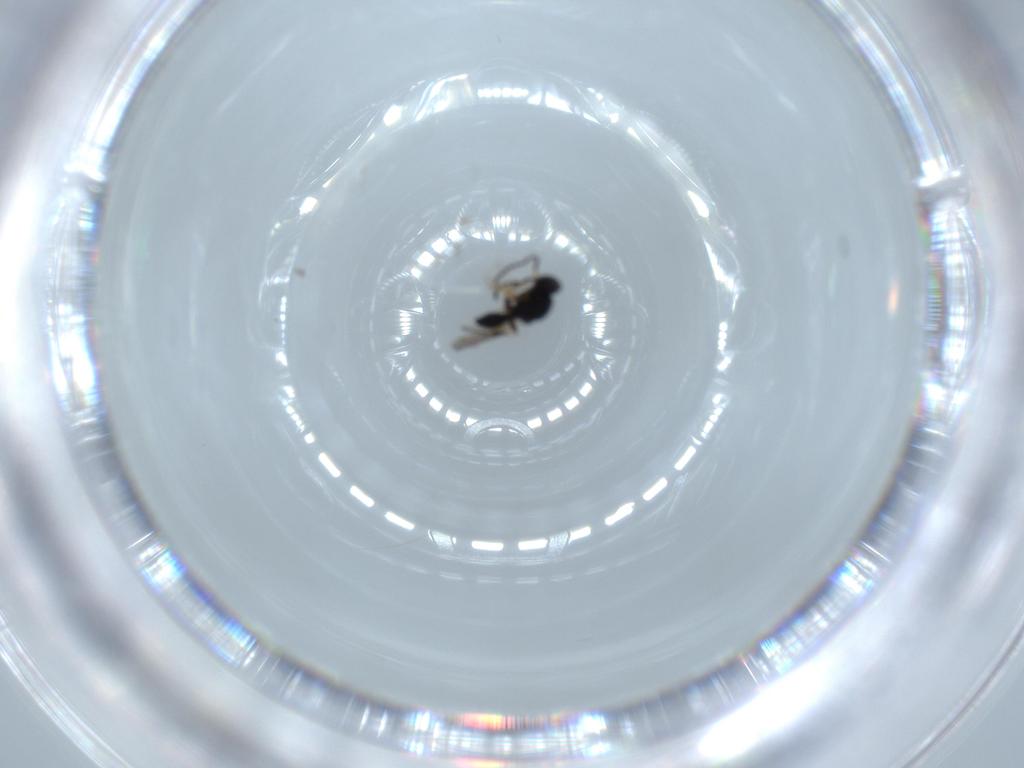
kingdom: Animalia
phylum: Arthropoda
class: Insecta
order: Hymenoptera
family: Platygastridae
